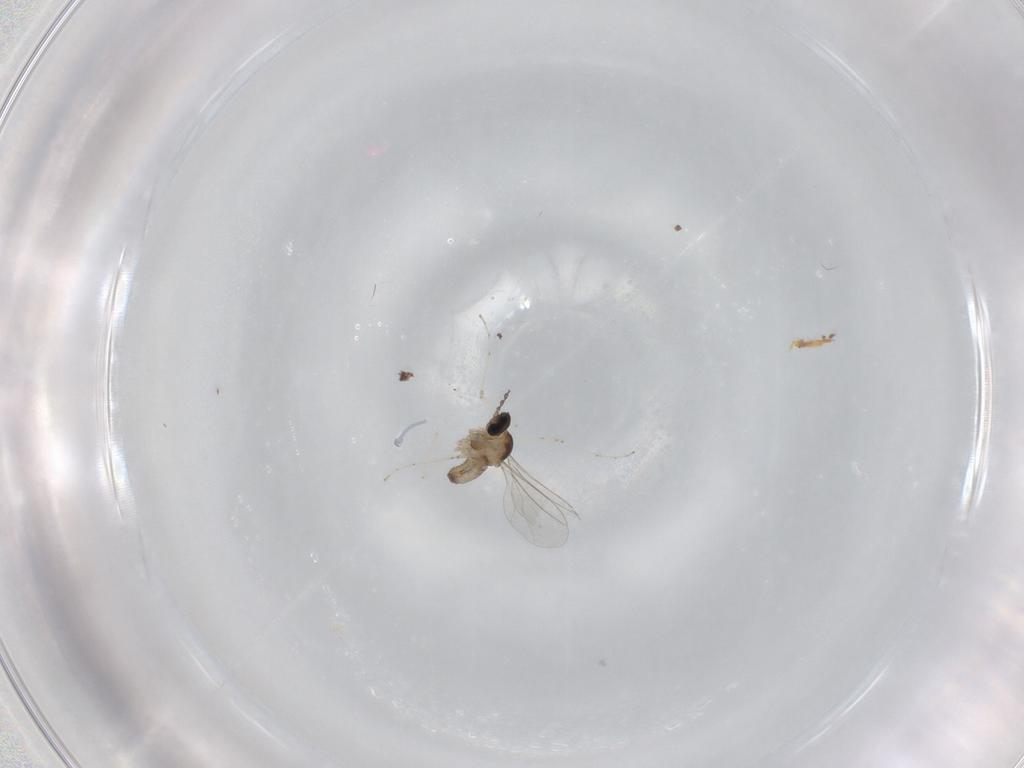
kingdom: Animalia
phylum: Arthropoda
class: Insecta
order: Diptera
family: Cecidomyiidae
